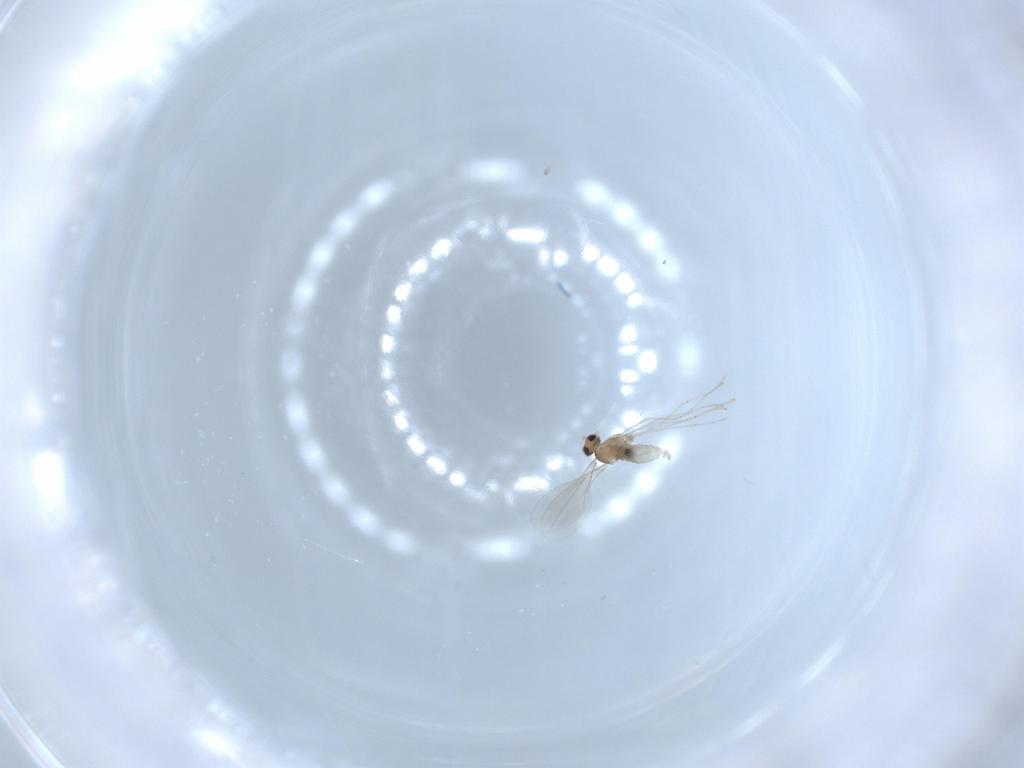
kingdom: Animalia
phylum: Arthropoda
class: Insecta
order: Diptera
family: Cecidomyiidae
